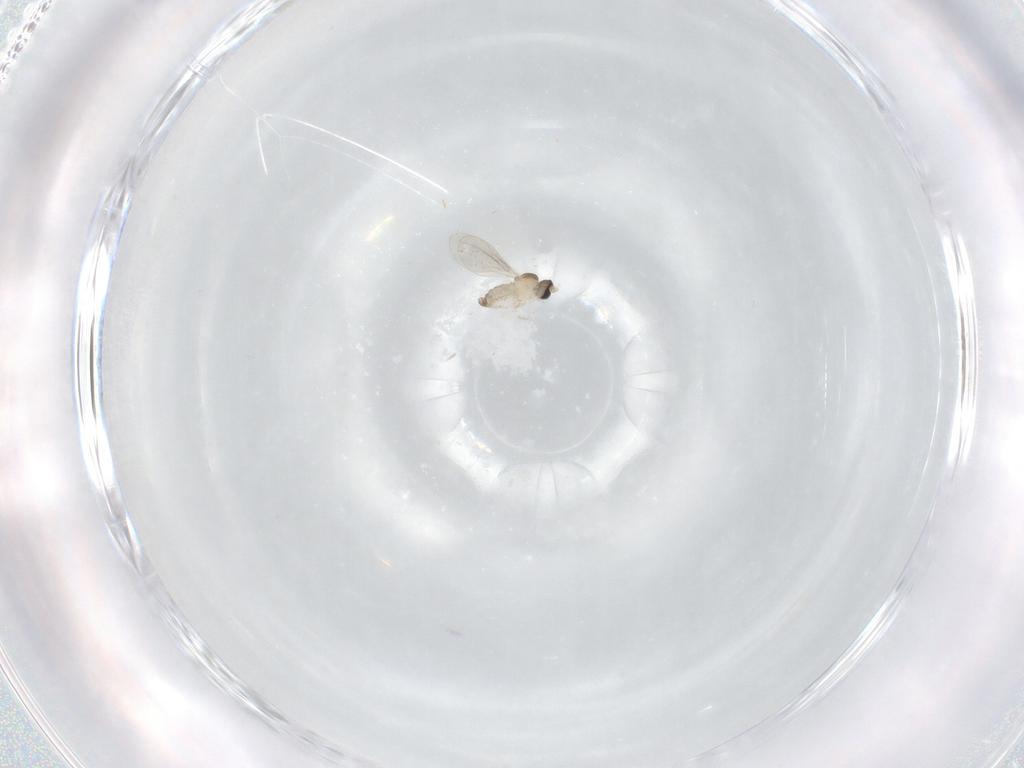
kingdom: Animalia
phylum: Arthropoda
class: Insecta
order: Diptera
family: Cecidomyiidae
